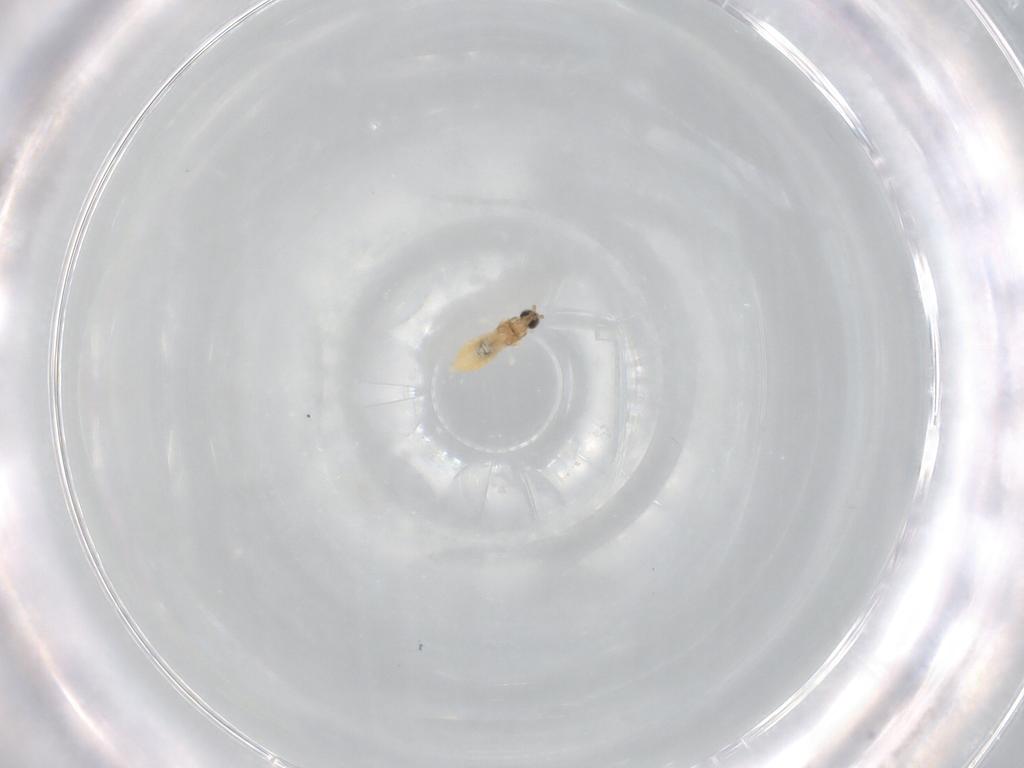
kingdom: Animalia
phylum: Arthropoda
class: Insecta
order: Diptera
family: Cecidomyiidae
